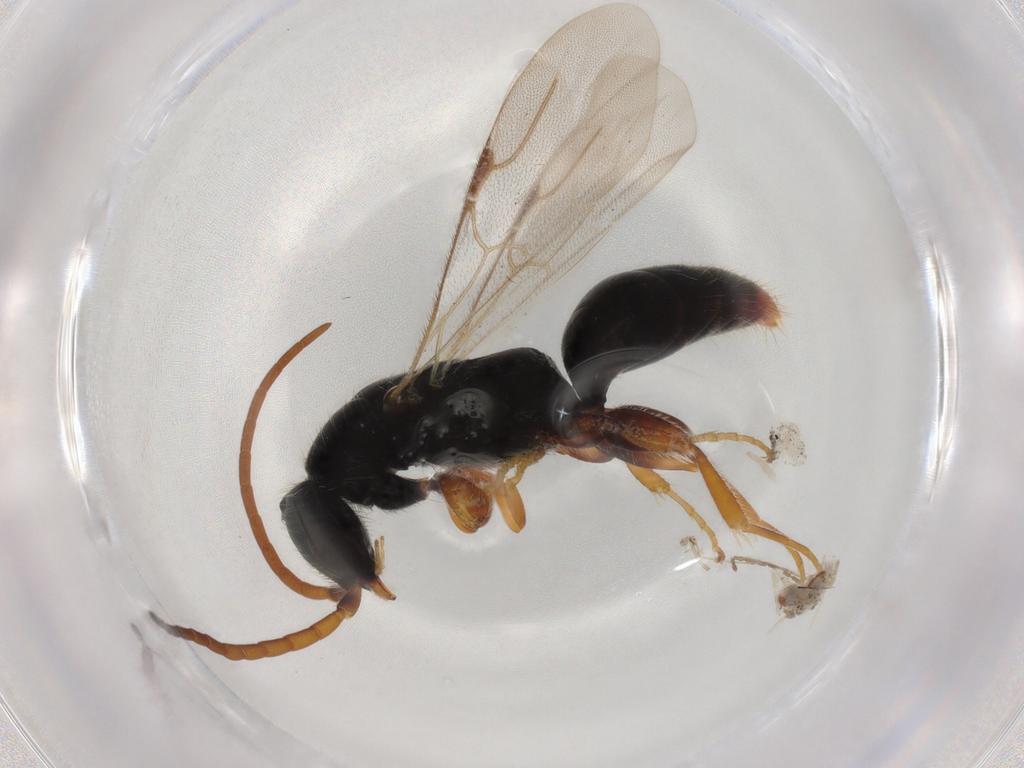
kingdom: Animalia
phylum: Arthropoda
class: Insecta
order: Hymenoptera
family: Bethylidae
